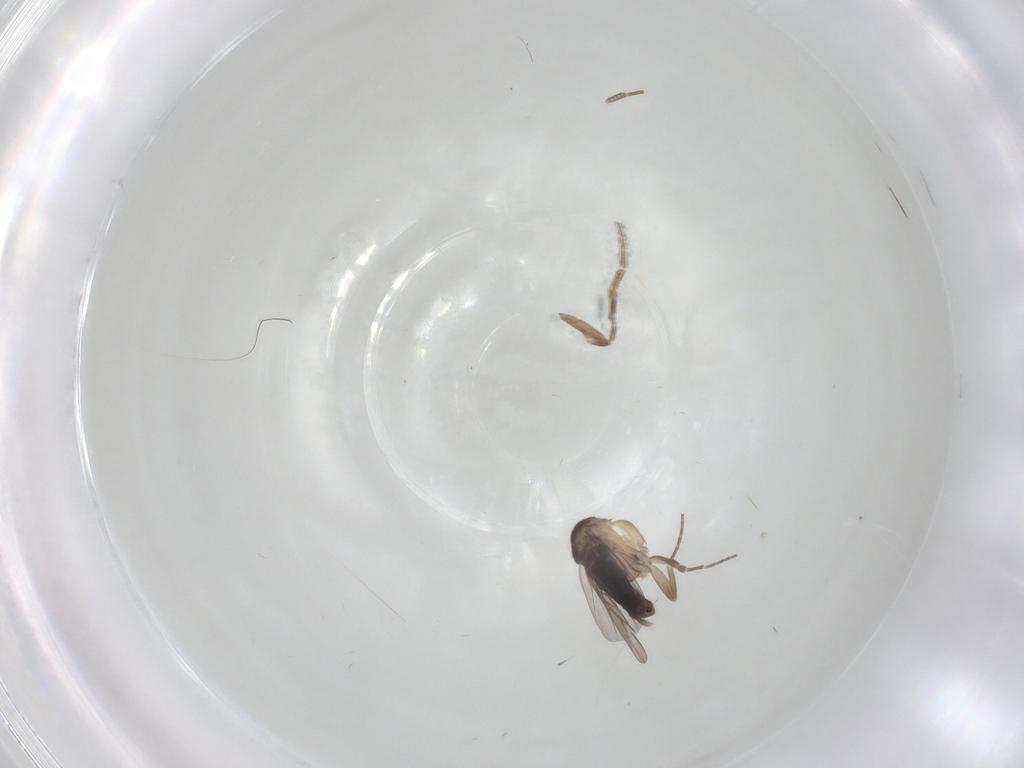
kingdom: Animalia
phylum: Arthropoda
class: Insecta
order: Diptera
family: Phoridae
